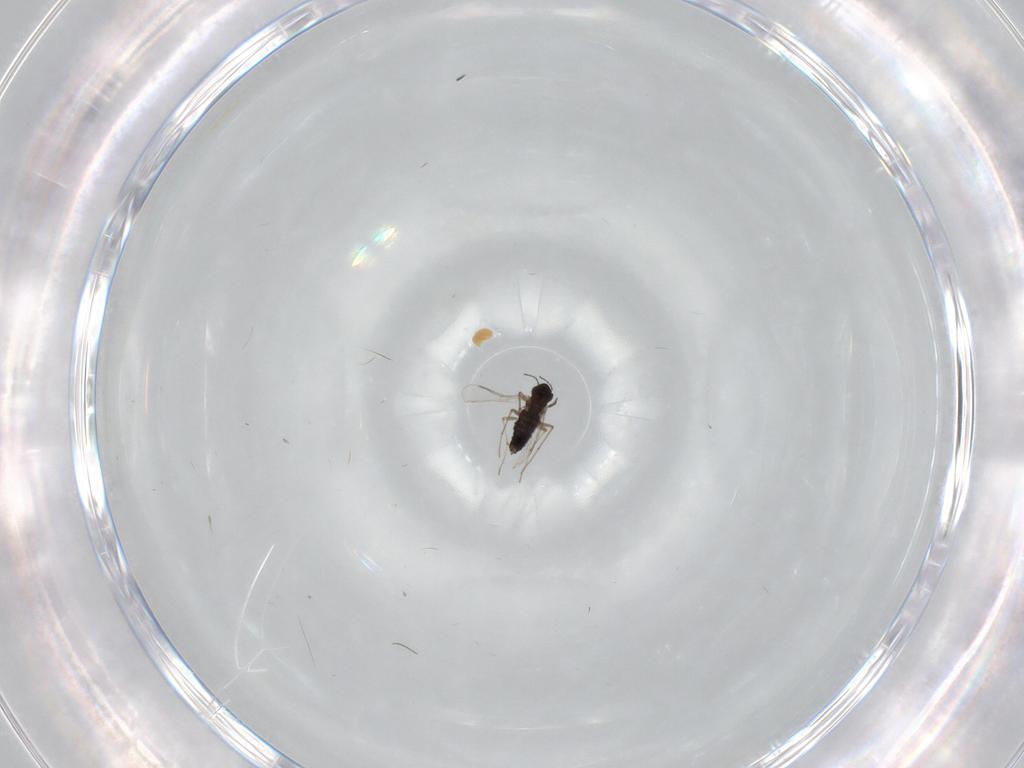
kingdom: Animalia
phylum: Arthropoda
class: Insecta
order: Diptera
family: Chironomidae
